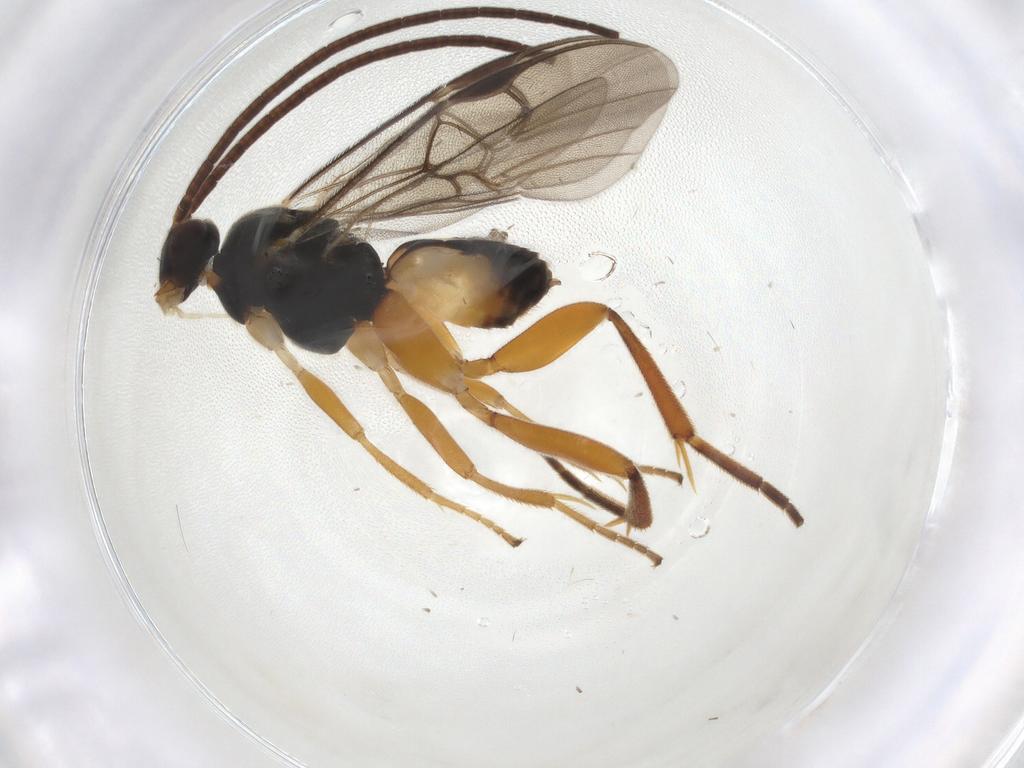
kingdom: Animalia
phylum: Arthropoda
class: Insecta
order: Hymenoptera
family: Braconidae
